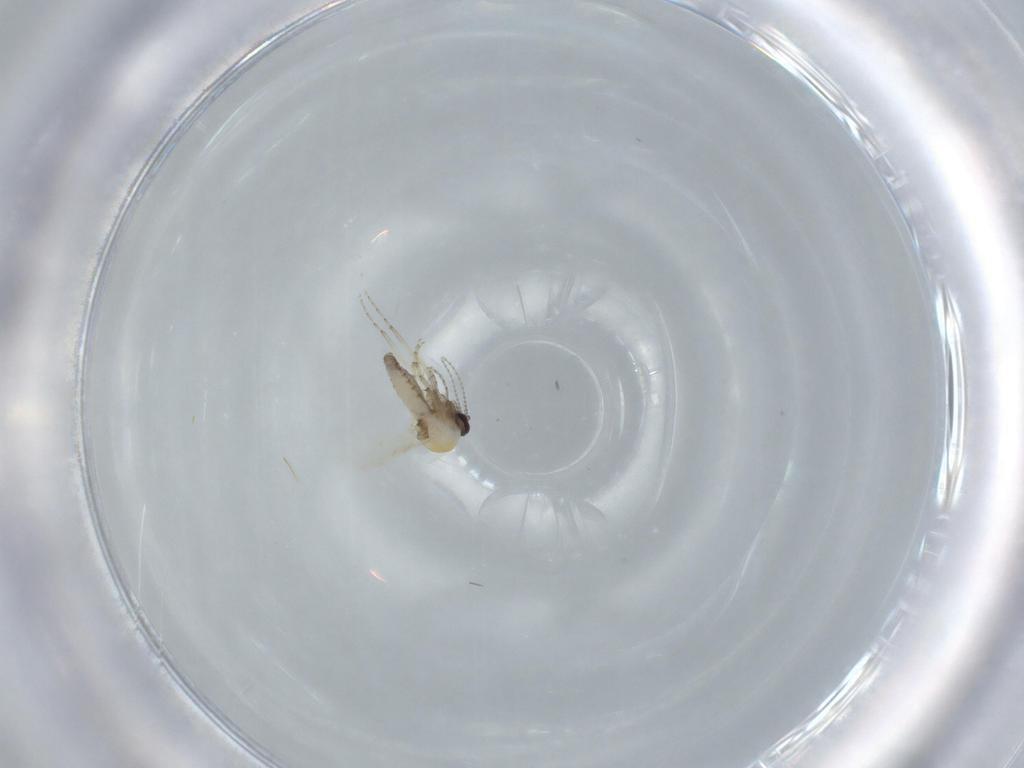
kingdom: Animalia
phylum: Arthropoda
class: Insecta
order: Diptera
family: Ceratopogonidae
